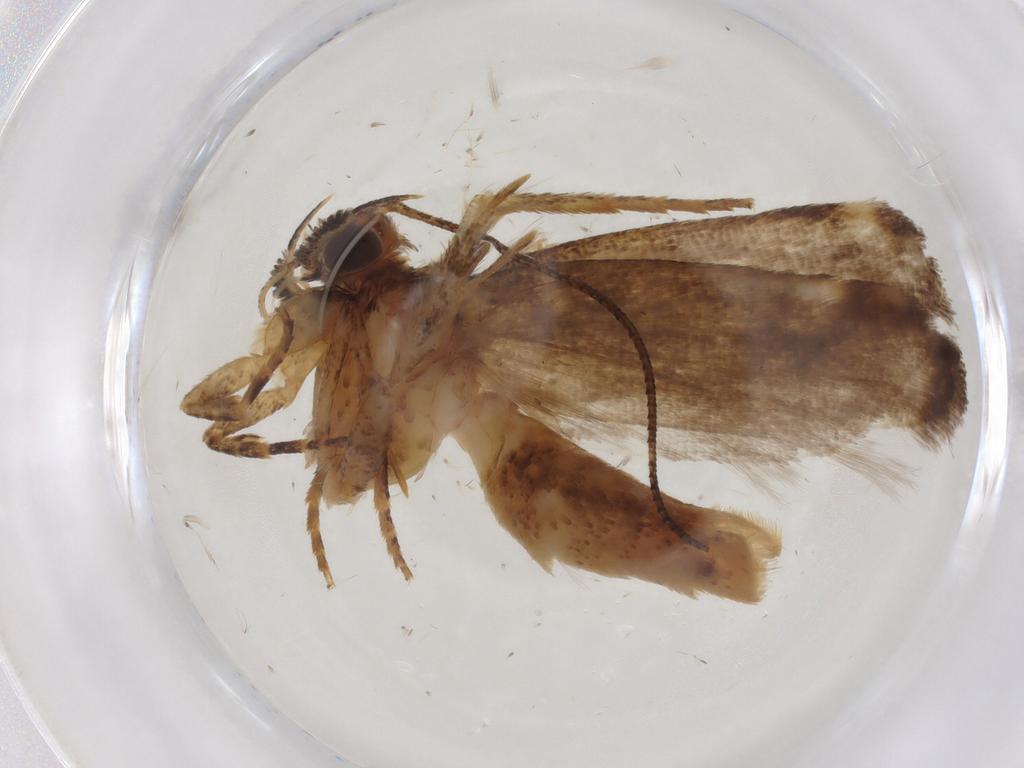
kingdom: Animalia
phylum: Arthropoda
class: Insecta
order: Lepidoptera
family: Gelechiidae
